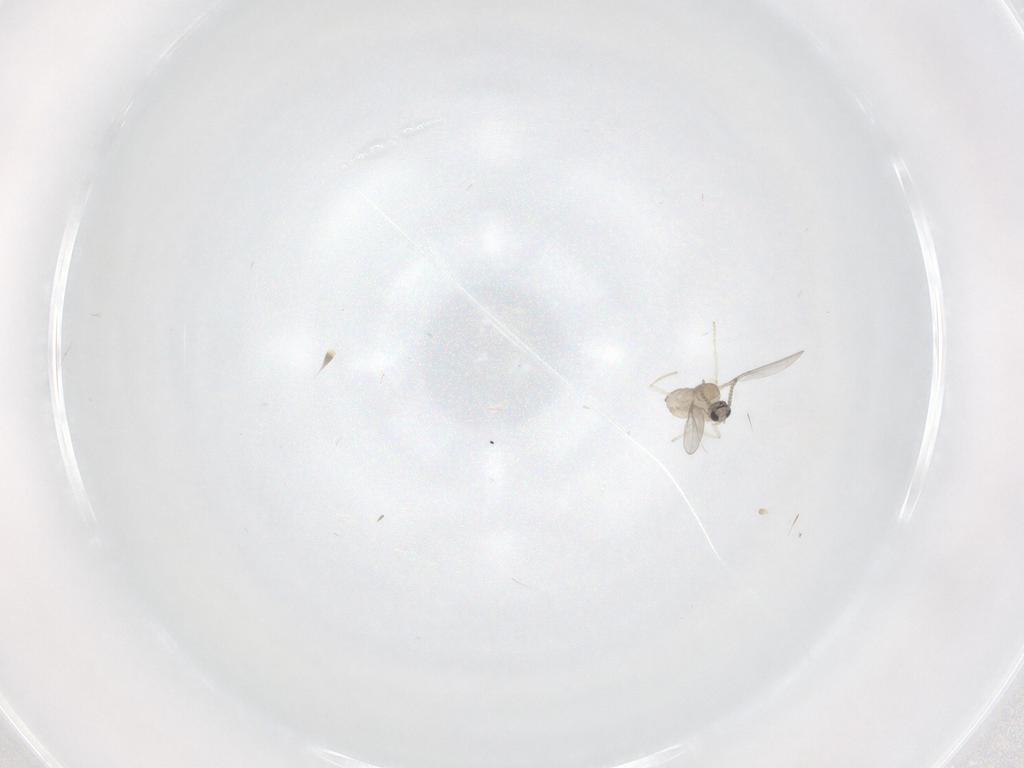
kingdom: Animalia
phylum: Arthropoda
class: Insecta
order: Diptera
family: Cecidomyiidae
